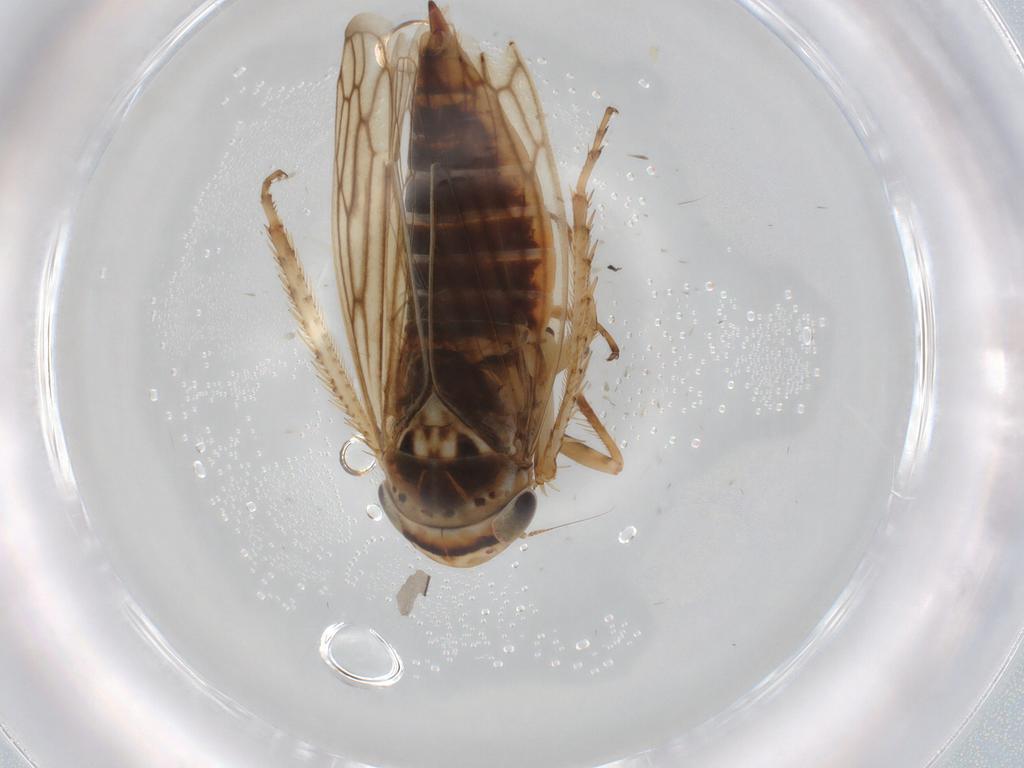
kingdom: Animalia
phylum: Arthropoda
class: Insecta
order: Hemiptera
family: Cicadellidae
